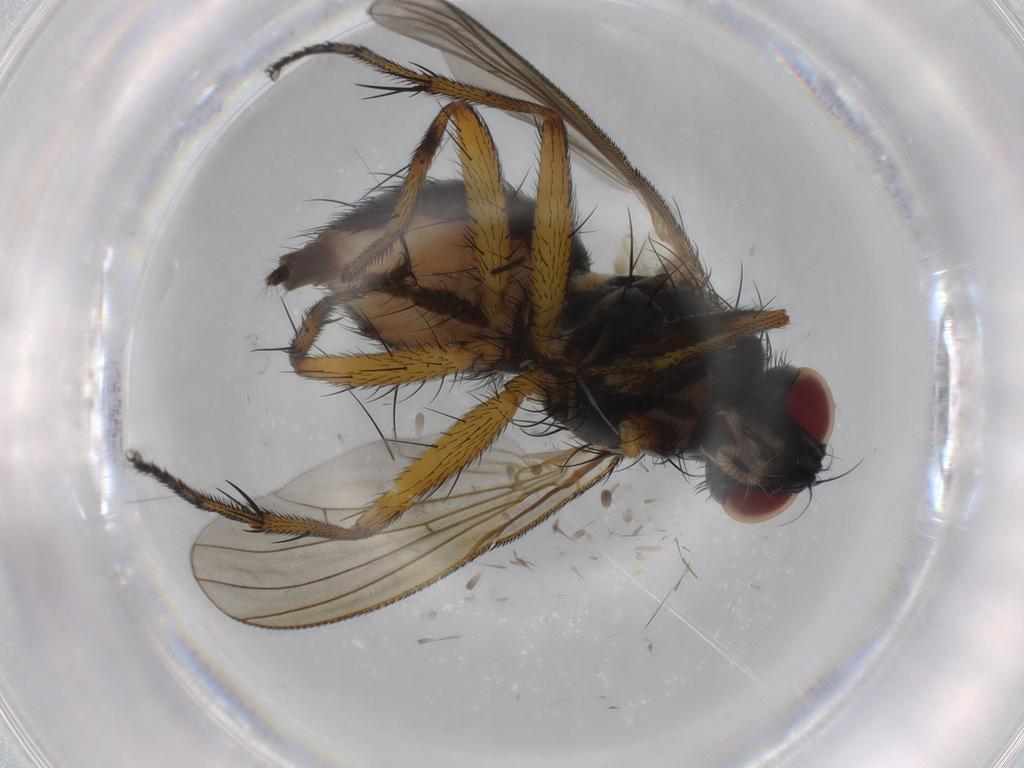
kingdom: Animalia
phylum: Arthropoda
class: Insecta
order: Diptera
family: Muscidae
